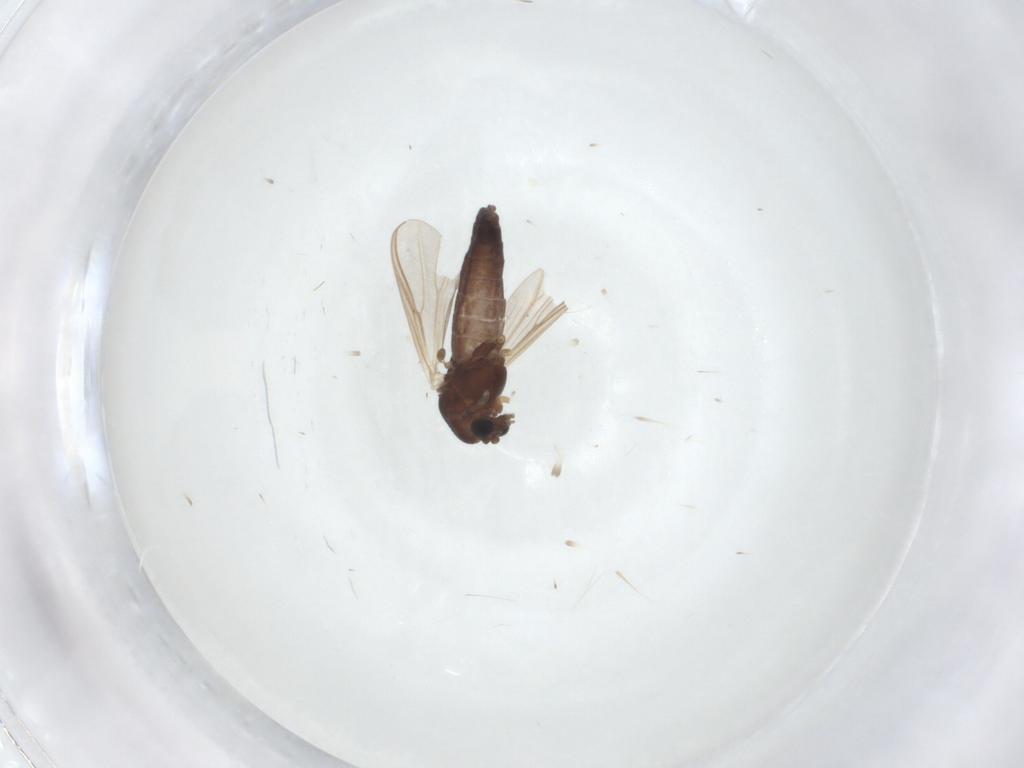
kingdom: Animalia
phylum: Arthropoda
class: Insecta
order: Diptera
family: Chironomidae
